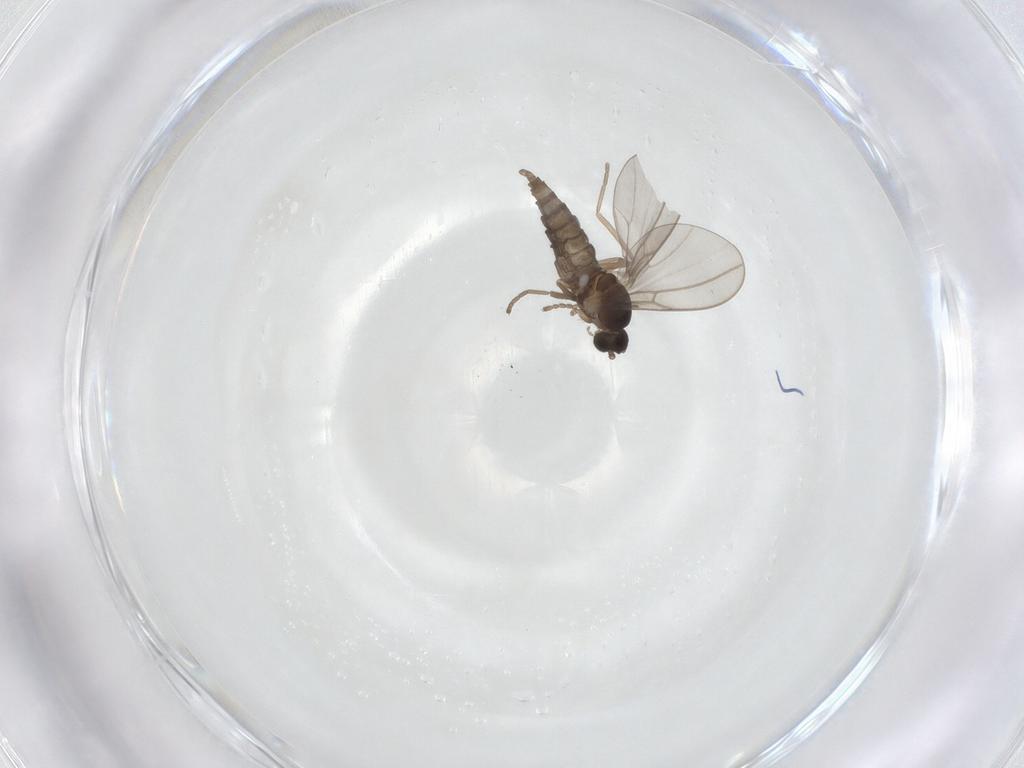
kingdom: Animalia
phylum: Arthropoda
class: Insecta
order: Diptera
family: Cecidomyiidae
